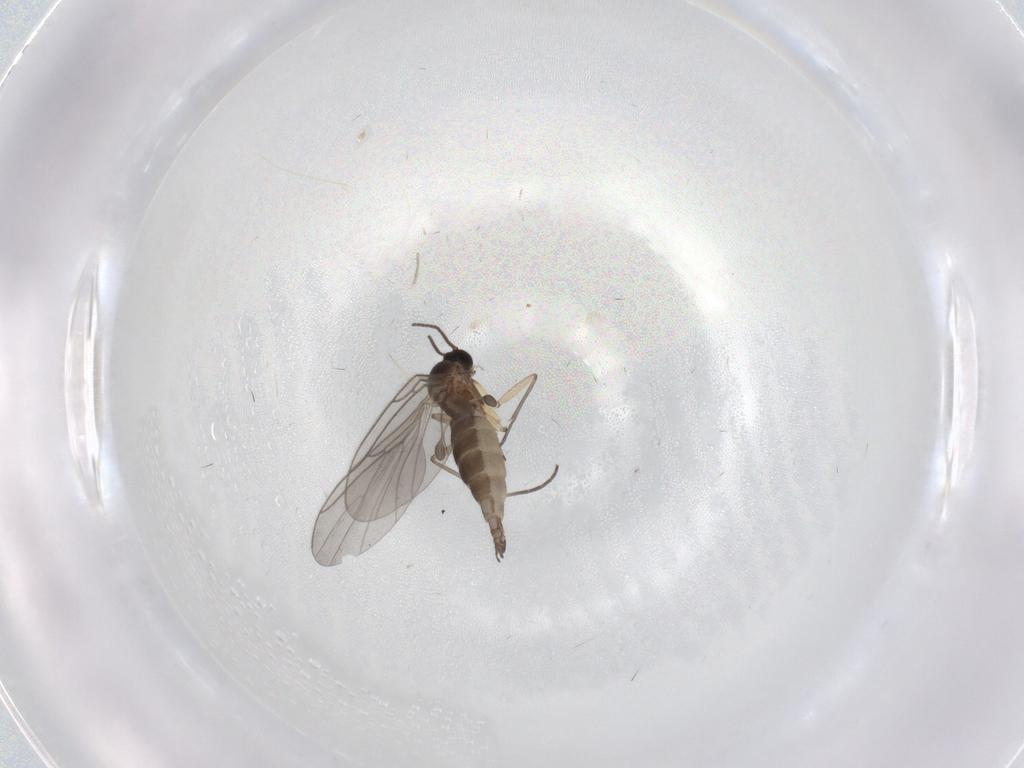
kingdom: Animalia
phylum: Arthropoda
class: Insecta
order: Diptera
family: Sciaridae
